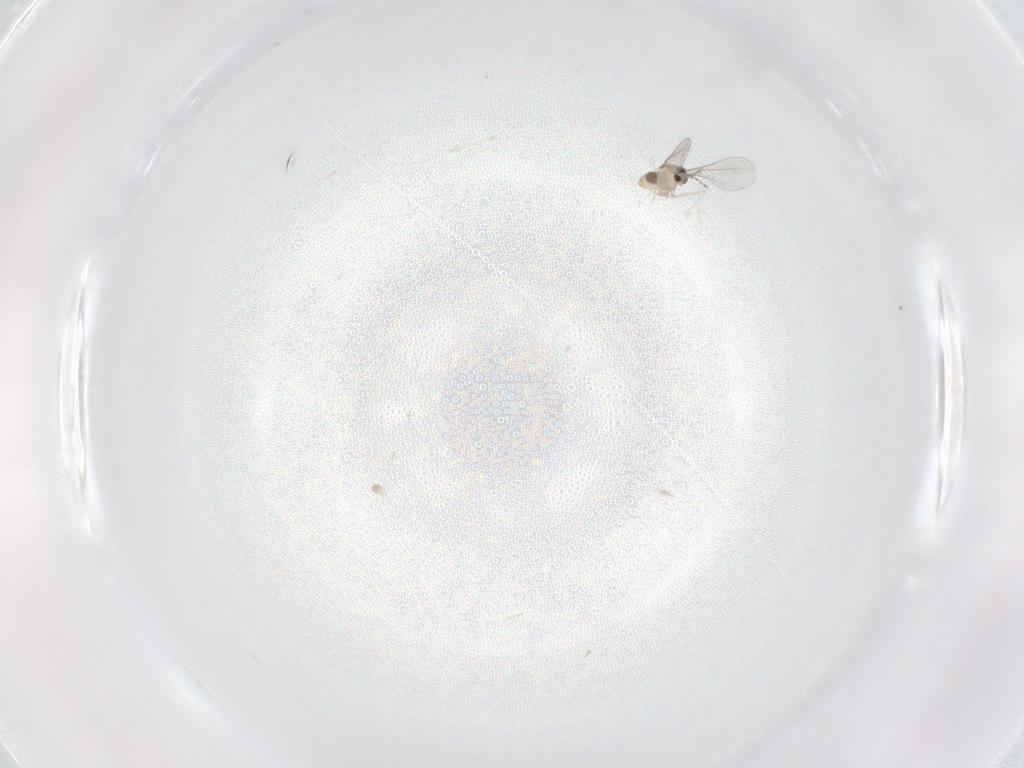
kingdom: Animalia
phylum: Arthropoda
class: Insecta
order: Diptera
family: Cecidomyiidae
